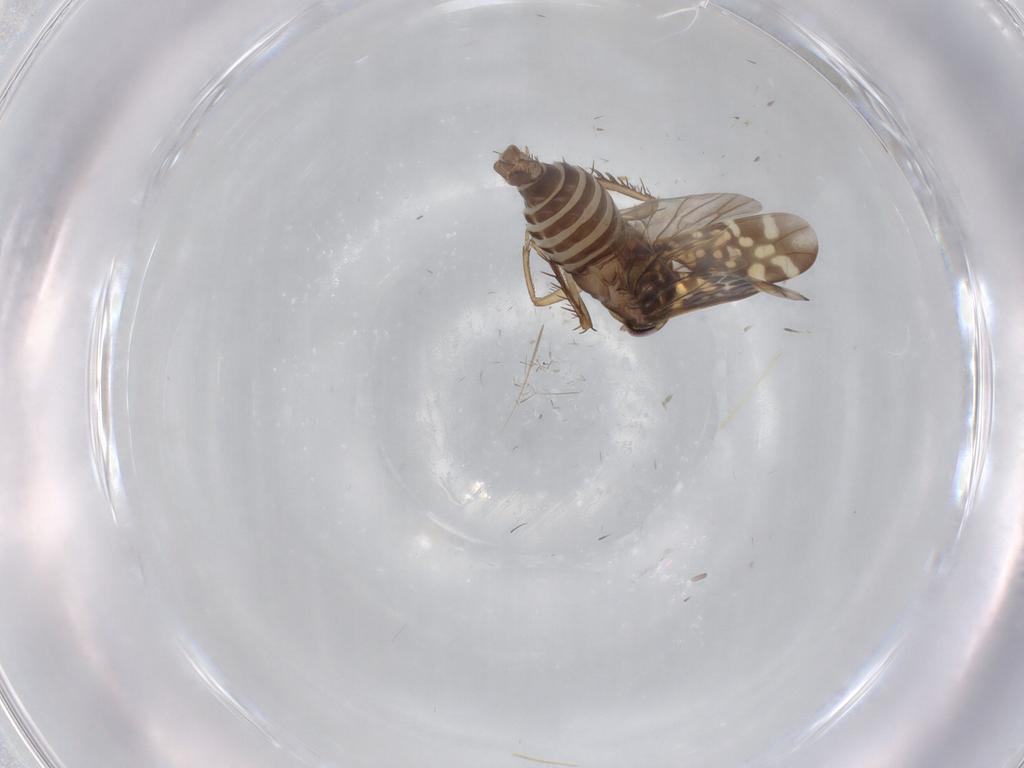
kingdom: Animalia
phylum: Arthropoda
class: Insecta
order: Hemiptera
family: Cicadellidae
